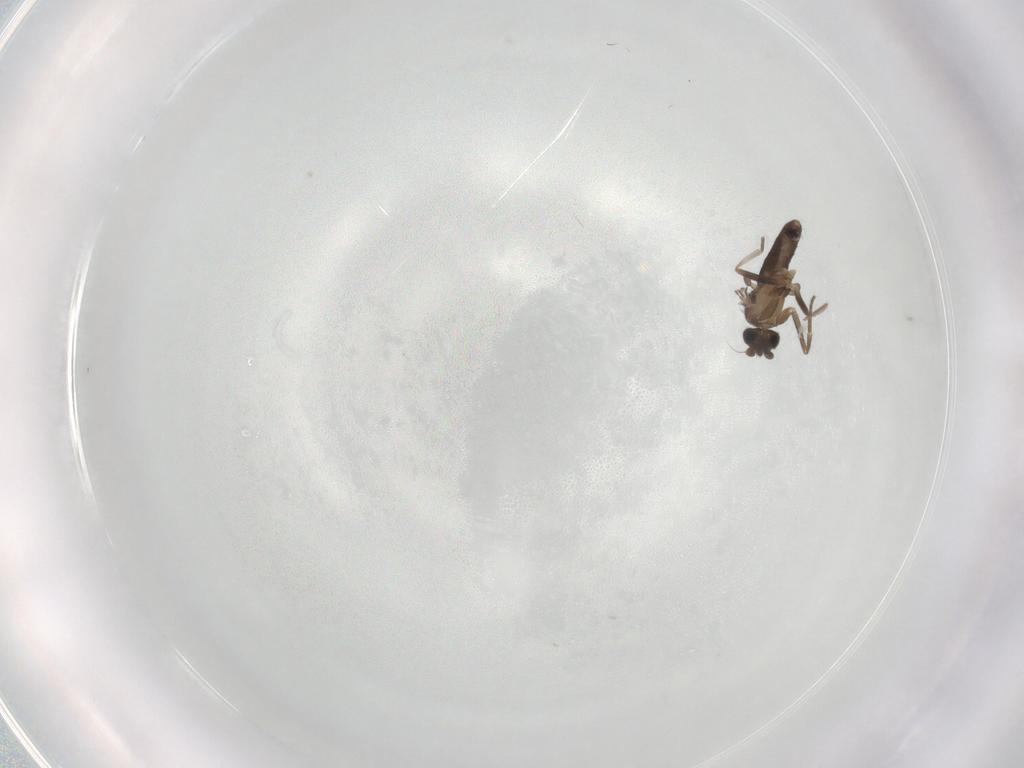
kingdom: Animalia
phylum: Arthropoda
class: Insecta
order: Diptera
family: Phoridae
